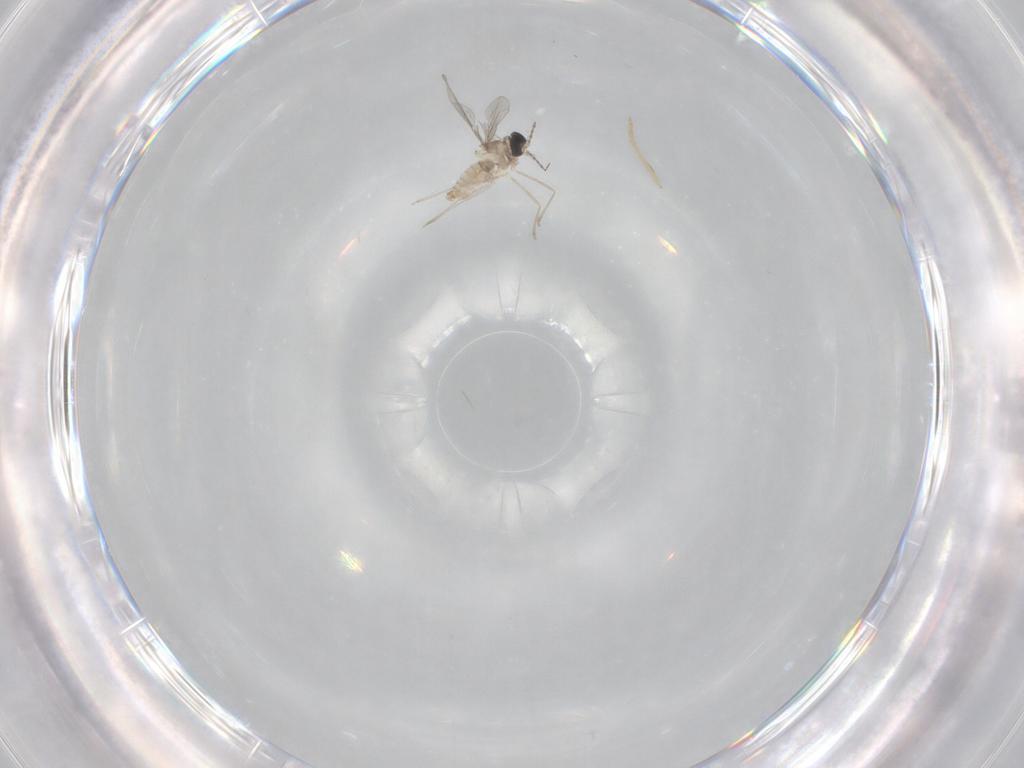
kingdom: Animalia
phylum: Arthropoda
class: Insecta
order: Diptera
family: Cecidomyiidae
